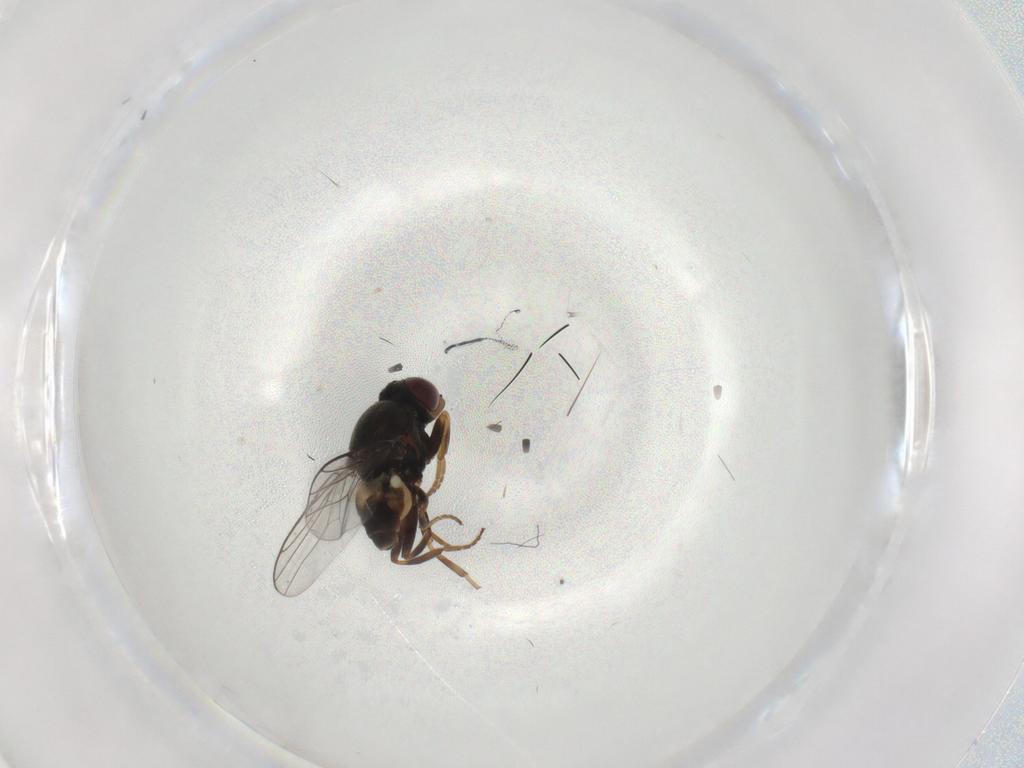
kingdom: Animalia
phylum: Arthropoda
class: Insecta
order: Diptera
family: Chloropidae
